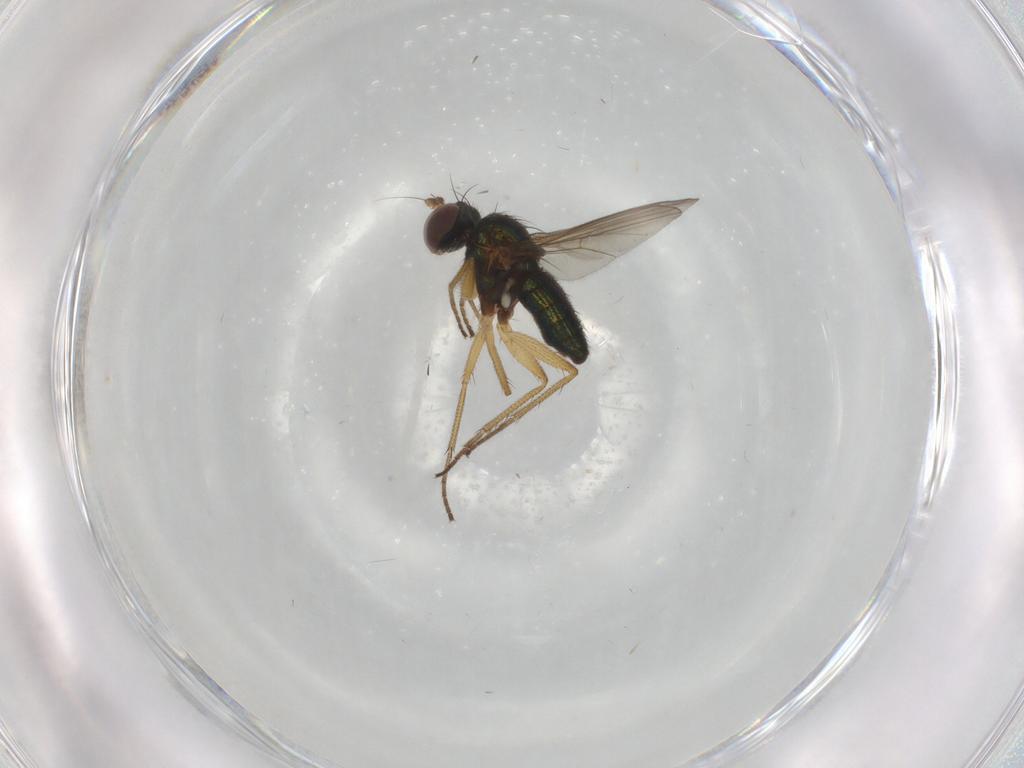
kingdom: Animalia
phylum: Arthropoda
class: Insecta
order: Diptera
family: Dolichopodidae
